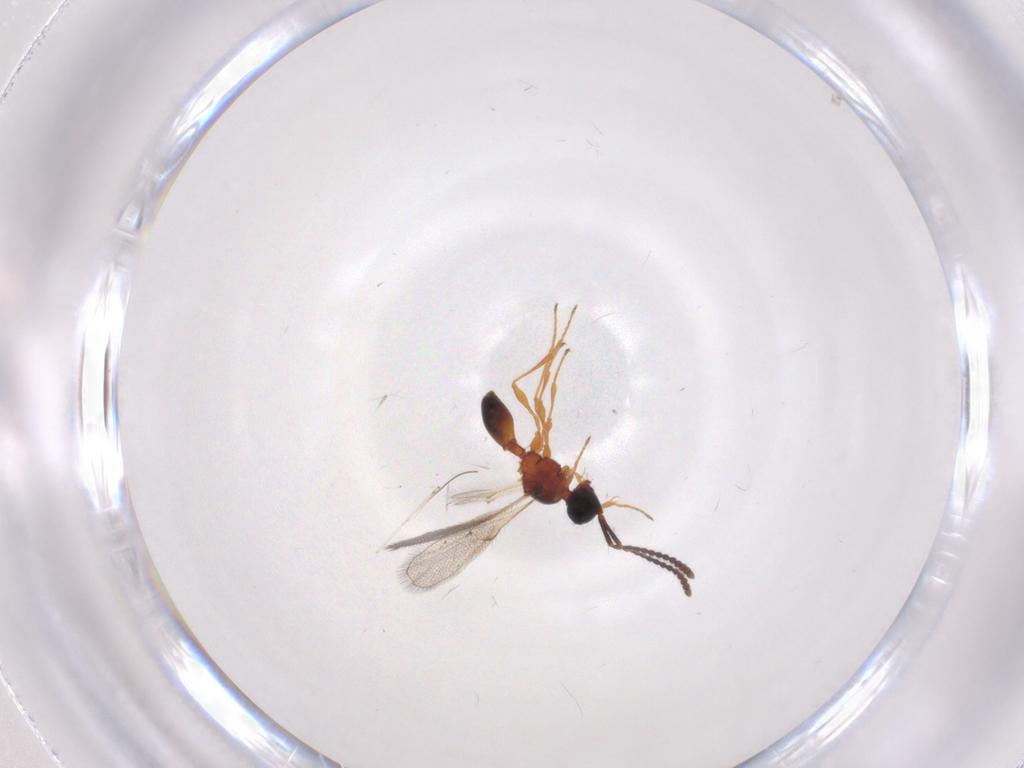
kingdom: Animalia
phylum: Arthropoda
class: Insecta
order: Hymenoptera
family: Diapriidae
